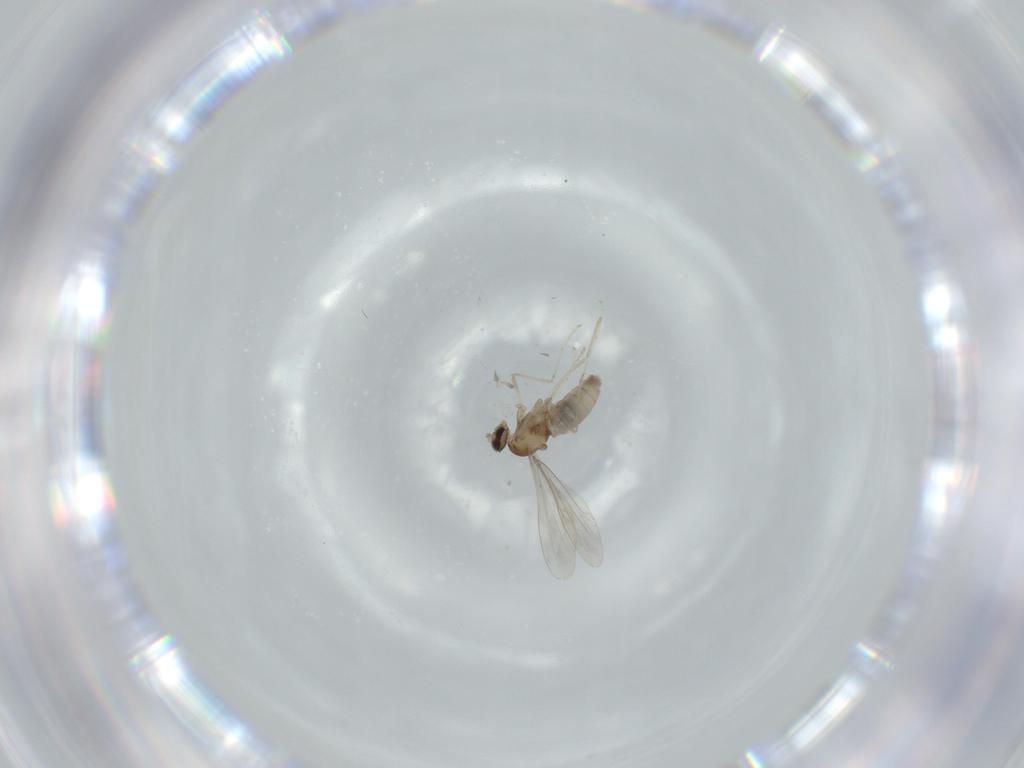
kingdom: Animalia
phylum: Arthropoda
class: Insecta
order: Diptera
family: Cecidomyiidae
